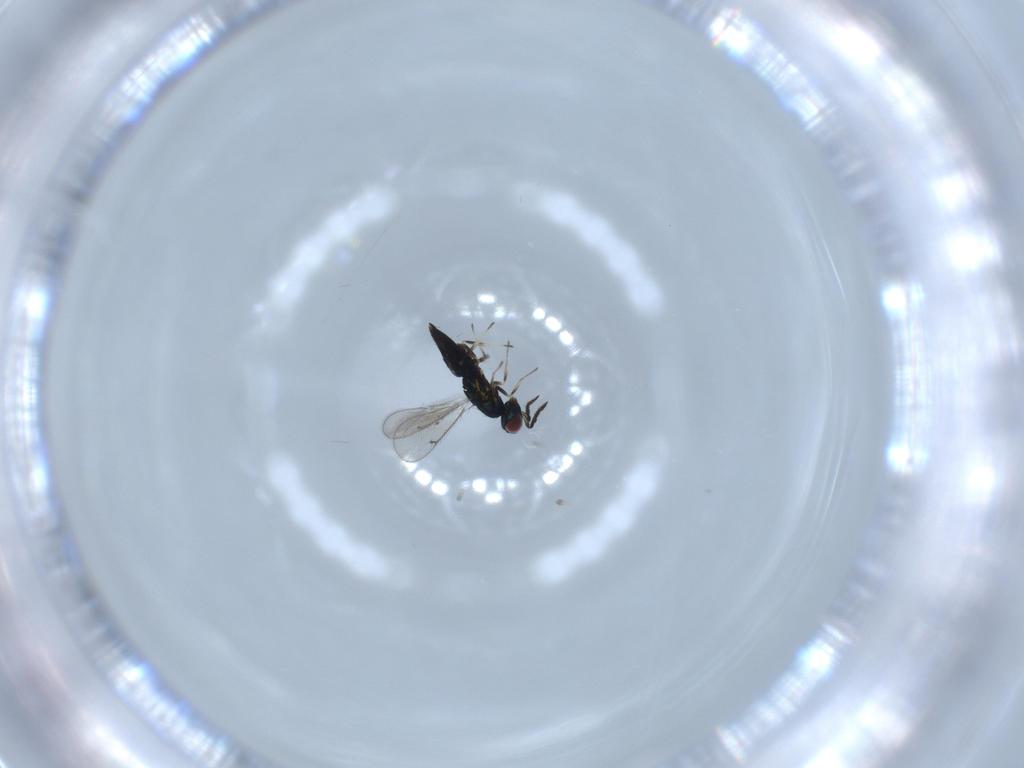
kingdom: Animalia
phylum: Arthropoda
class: Insecta
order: Hymenoptera
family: Eulophidae
